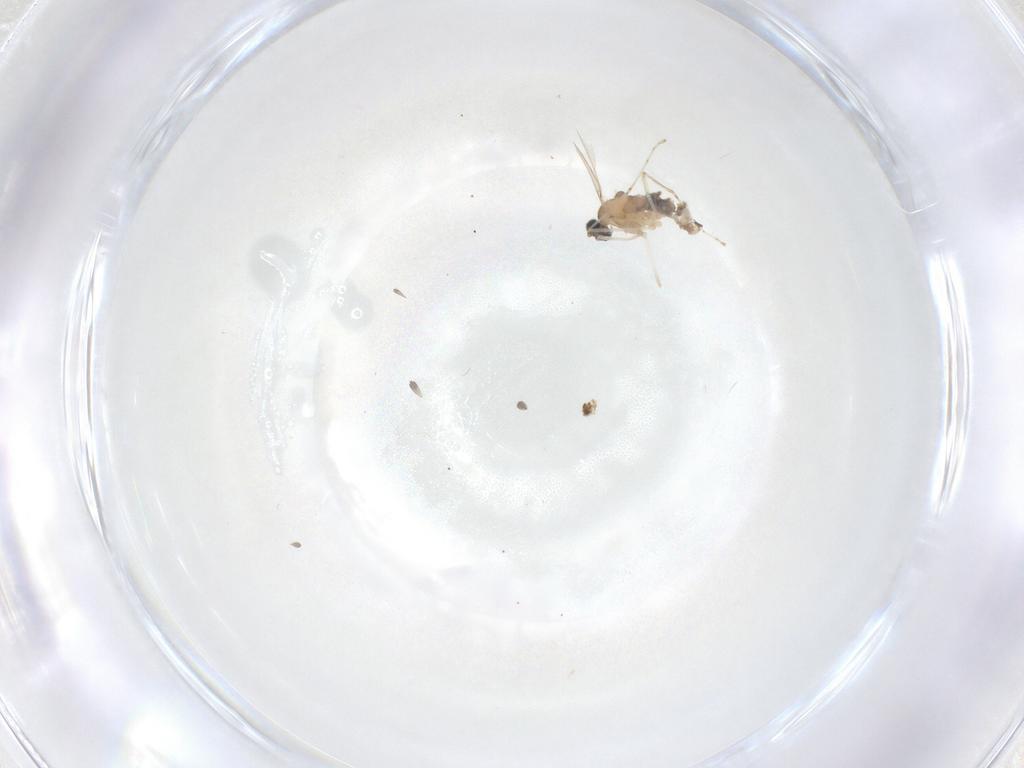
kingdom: Animalia
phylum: Arthropoda
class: Insecta
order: Diptera
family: Cecidomyiidae
